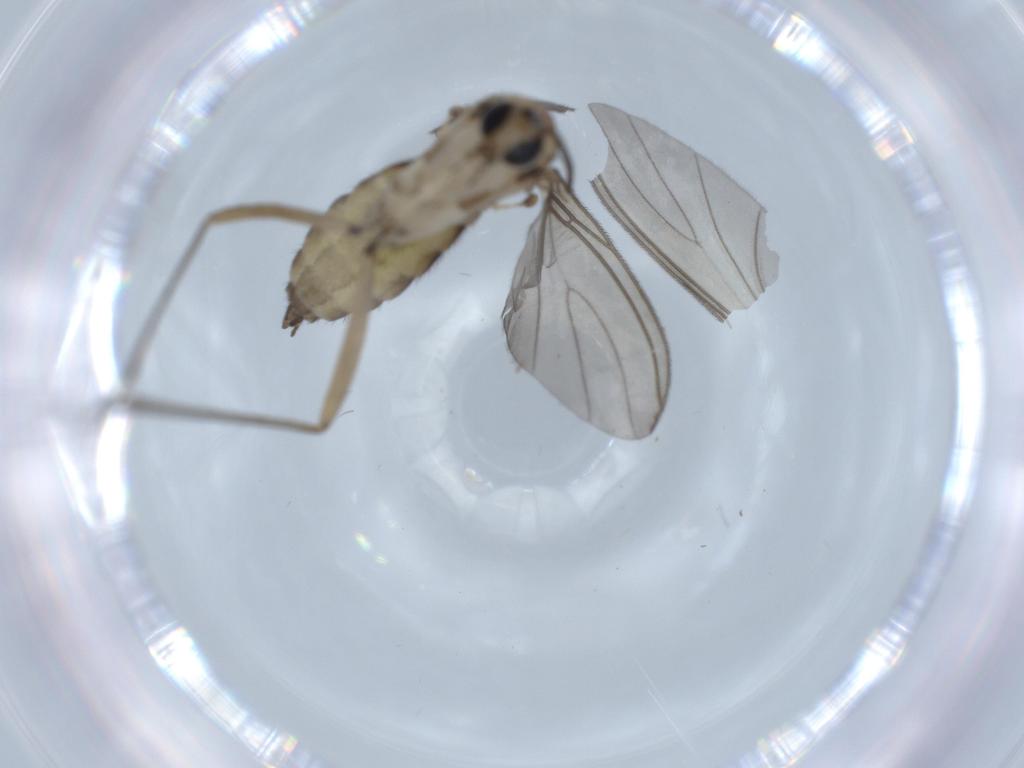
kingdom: Animalia
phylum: Arthropoda
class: Insecta
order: Diptera
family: Sciaridae
